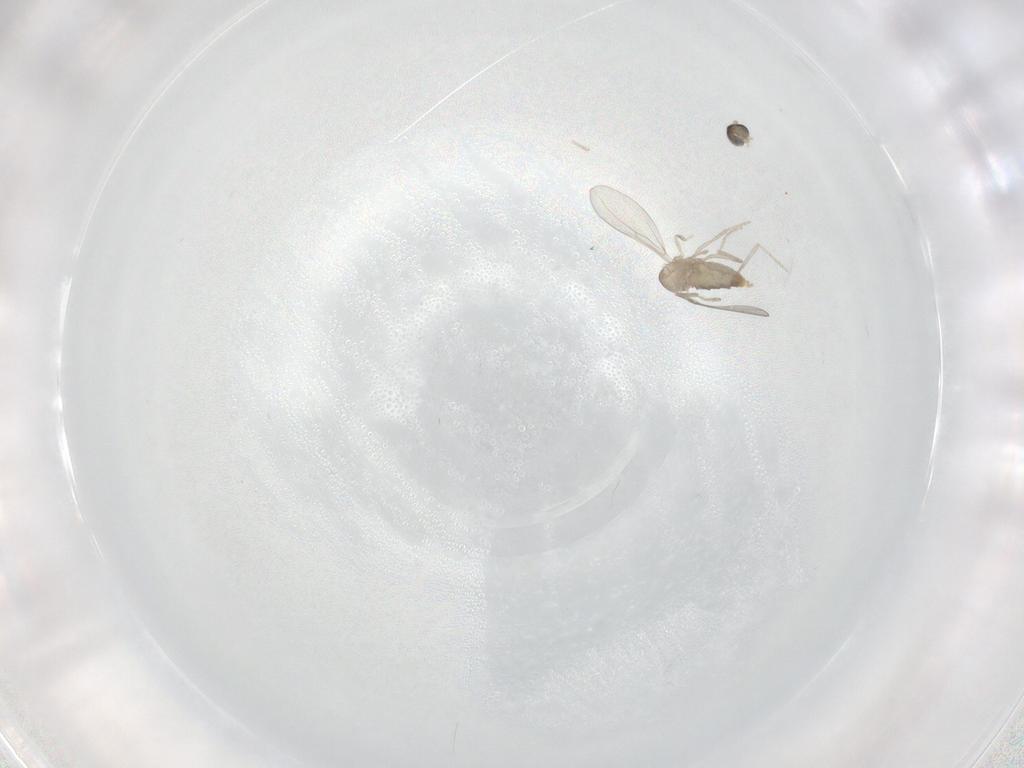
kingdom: Animalia
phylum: Arthropoda
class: Insecta
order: Diptera
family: Cecidomyiidae
